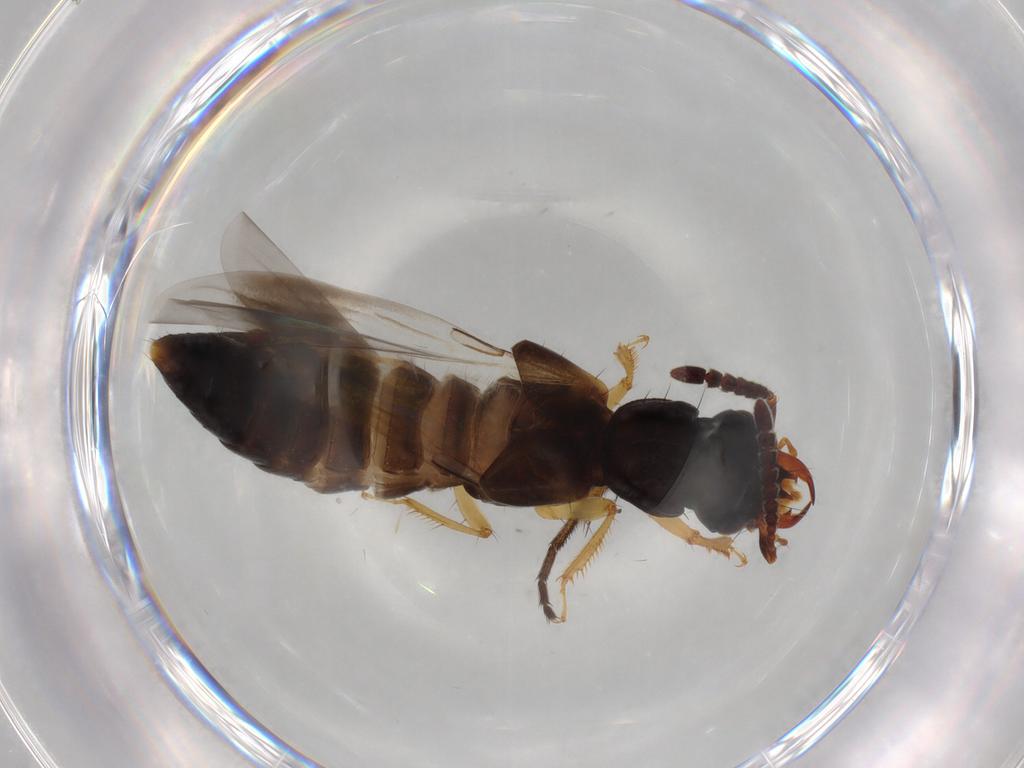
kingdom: Animalia
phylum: Arthropoda
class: Insecta
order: Coleoptera
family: Staphylinidae
